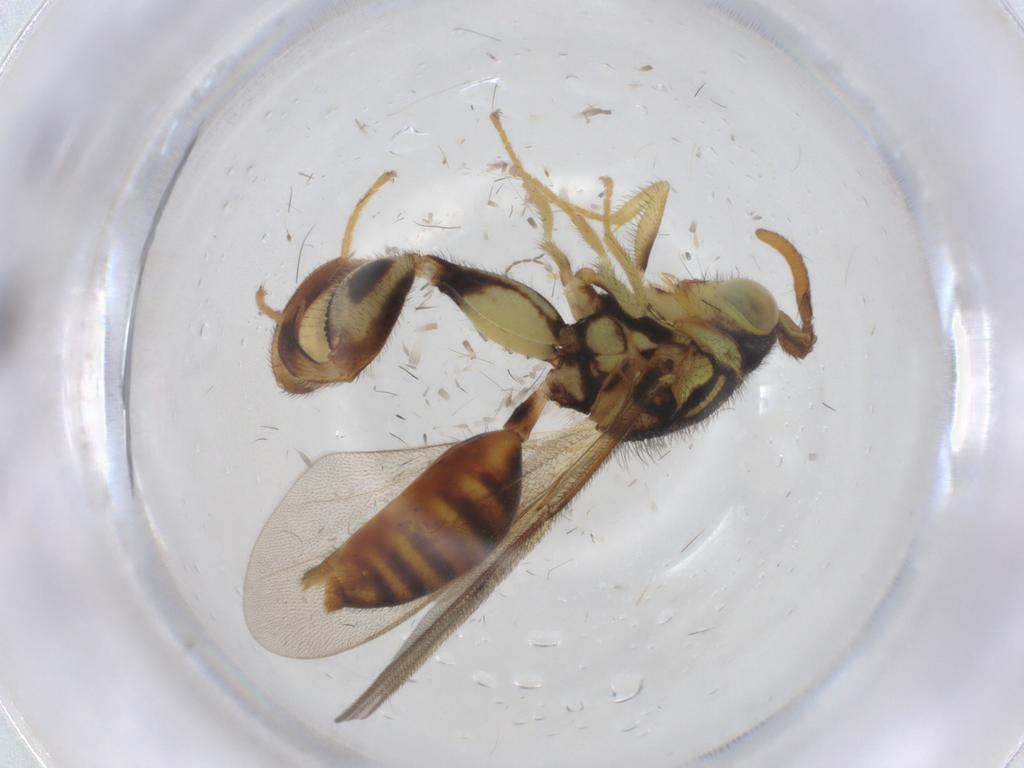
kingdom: Animalia
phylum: Arthropoda
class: Insecta
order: Hymenoptera
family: Chalcididae
